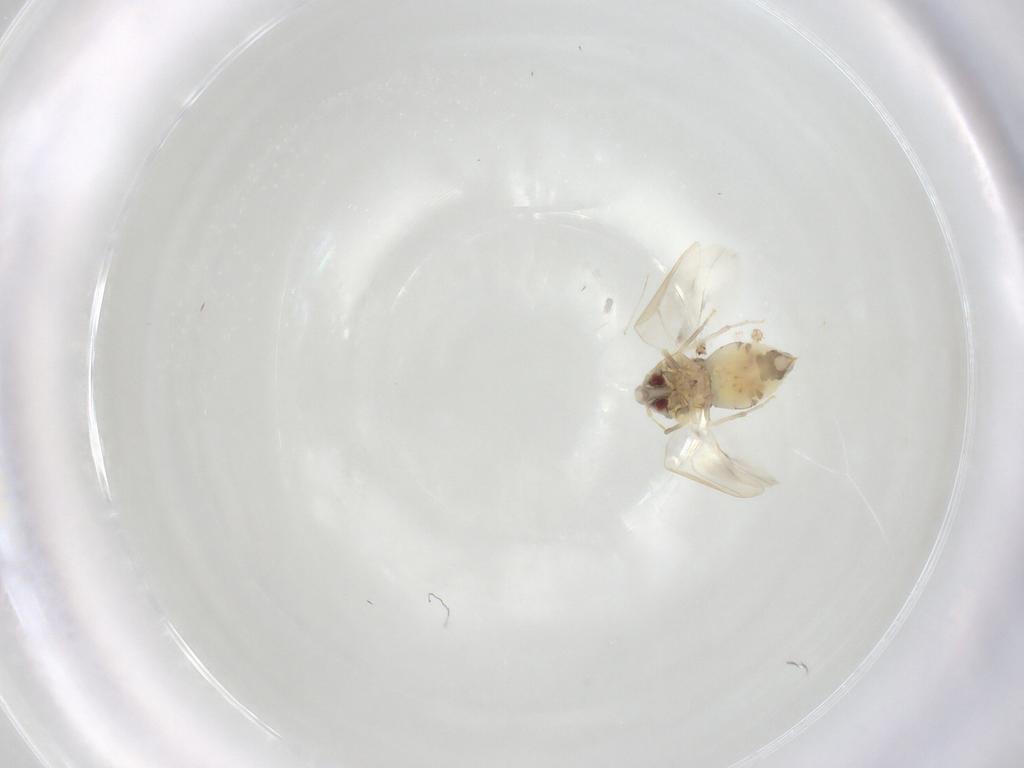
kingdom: Animalia
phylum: Arthropoda
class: Insecta
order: Hemiptera
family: Aleyrodidae
